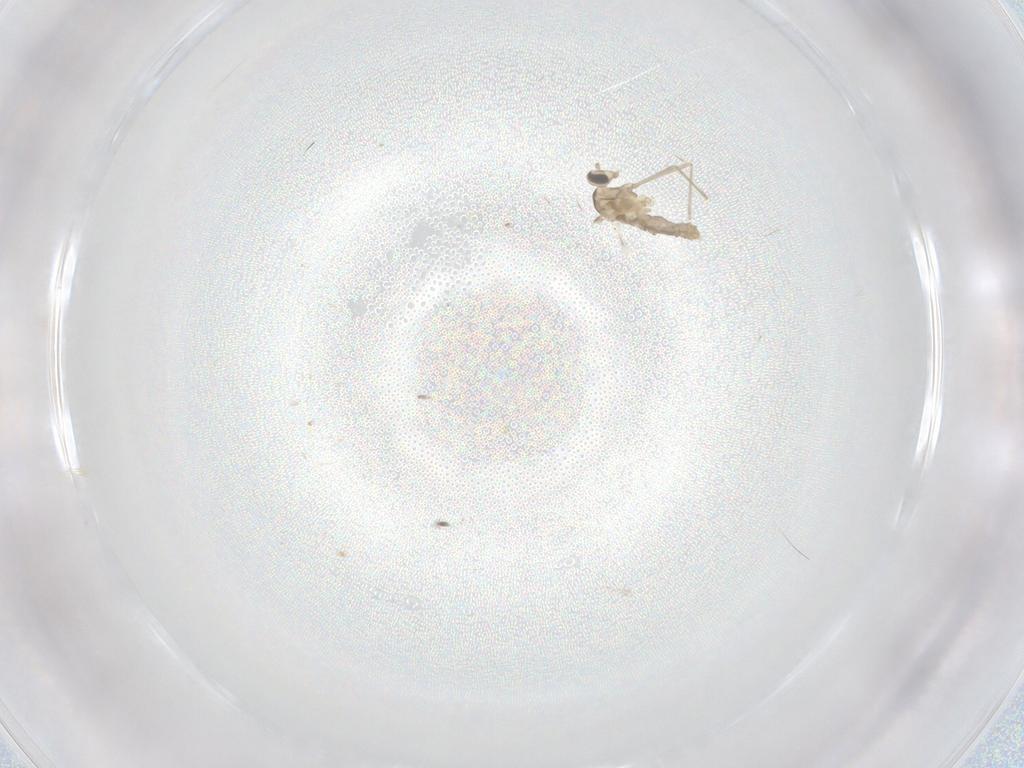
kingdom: Animalia
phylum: Arthropoda
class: Insecta
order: Diptera
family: Cecidomyiidae
